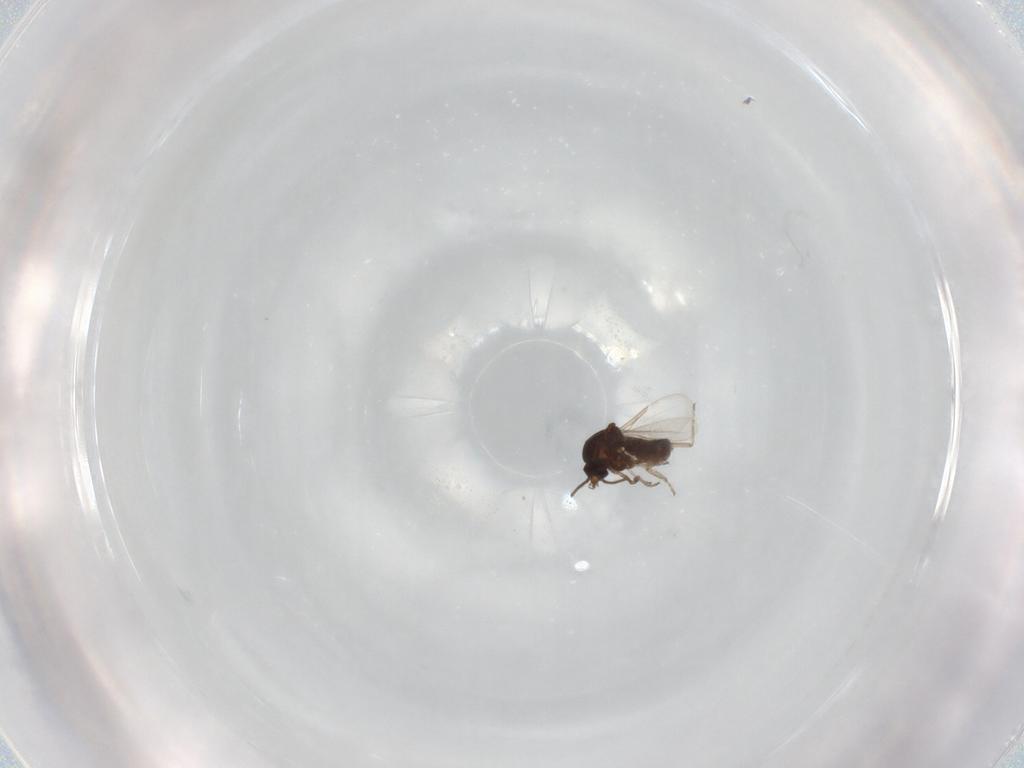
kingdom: Animalia
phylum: Arthropoda
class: Insecta
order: Diptera
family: Ceratopogonidae
